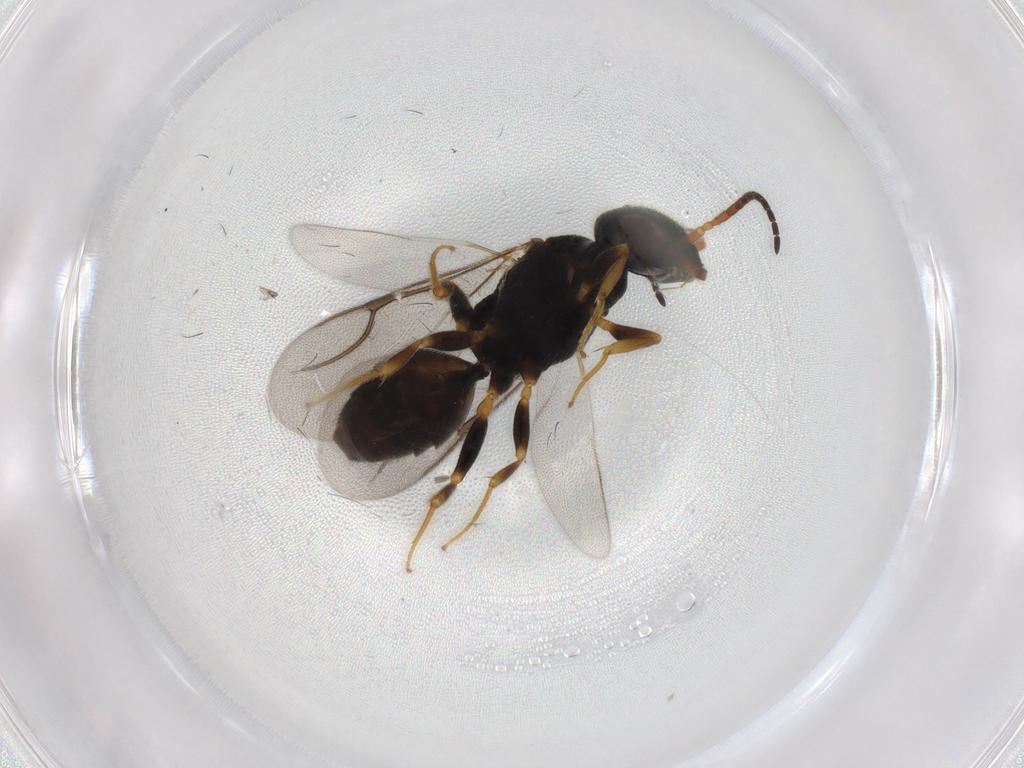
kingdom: Animalia
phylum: Arthropoda
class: Insecta
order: Hymenoptera
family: Bethylidae
